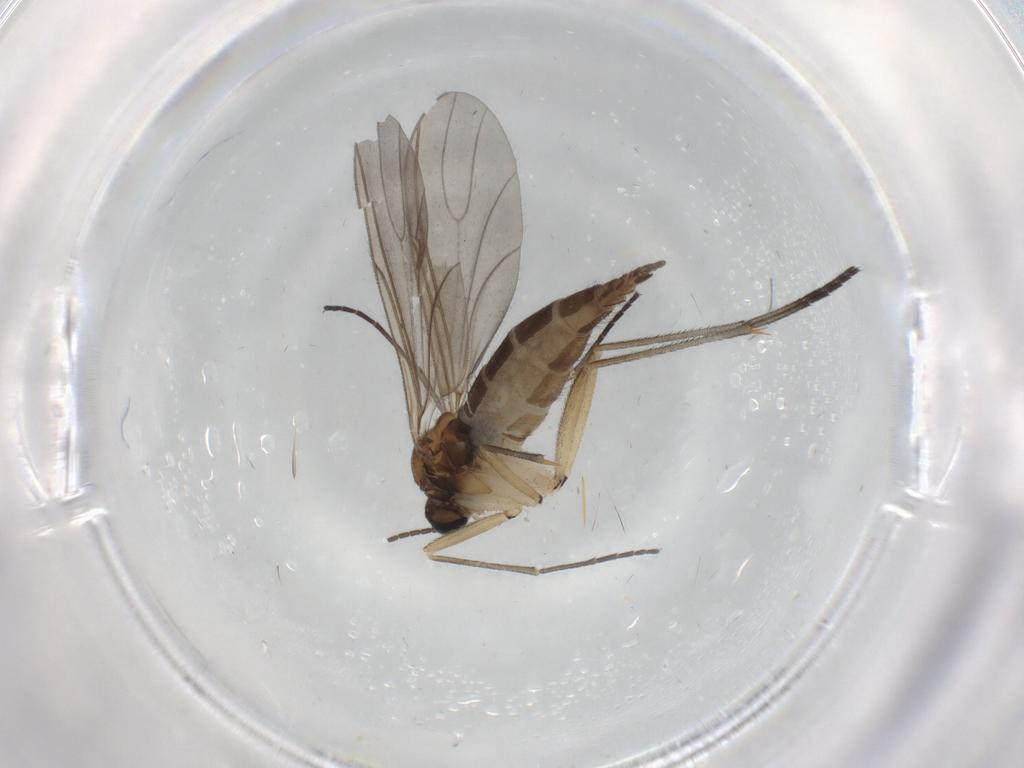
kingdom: Animalia
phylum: Arthropoda
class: Insecta
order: Diptera
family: Sciaridae
